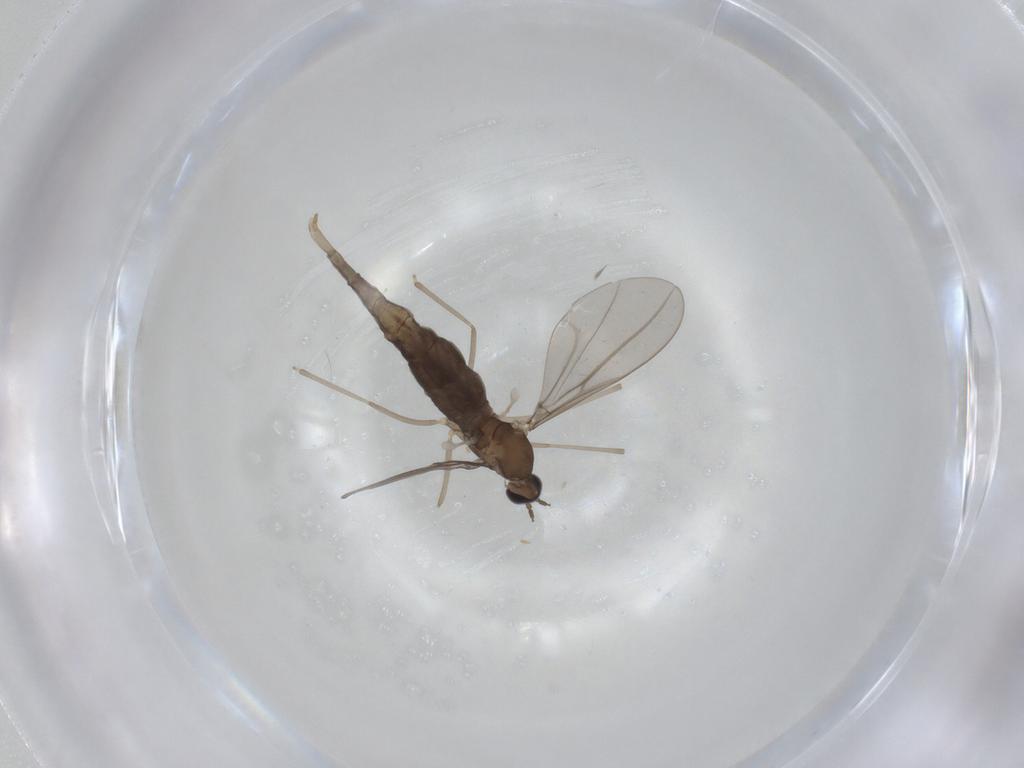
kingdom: Animalia
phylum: Arthropoda
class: Insecta
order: Diptera
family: Cecidomyiidae
